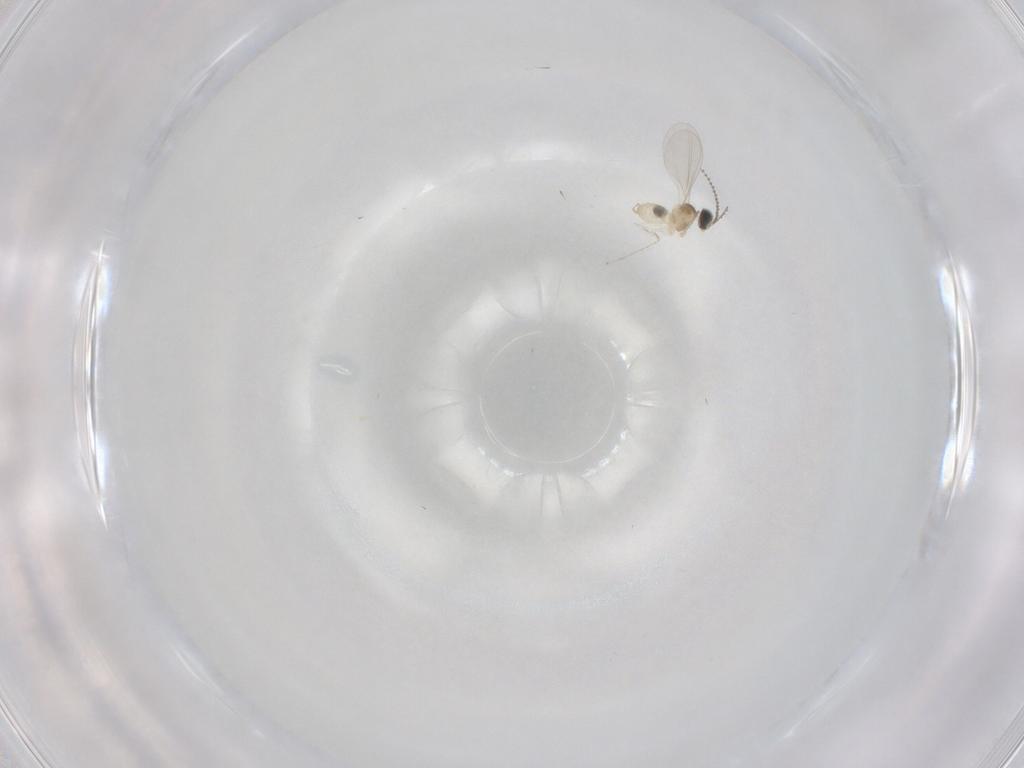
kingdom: Animalia
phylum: Arthropoda
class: Insecta
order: Diptera
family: Cecidomyiidae
